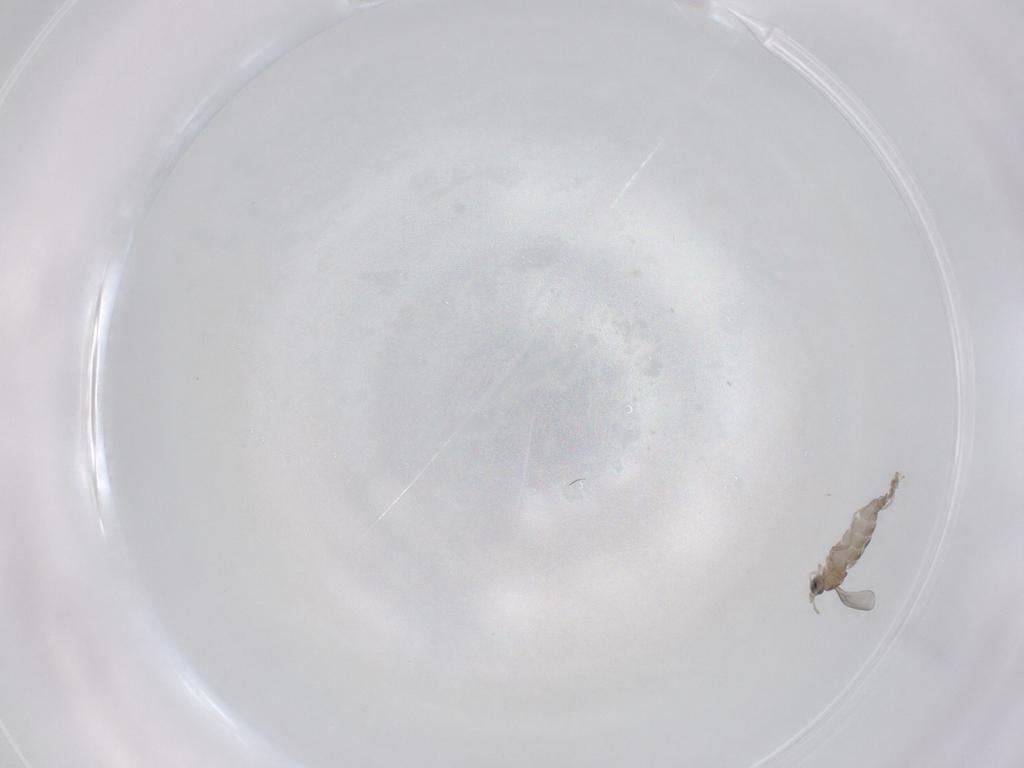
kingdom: Animalia
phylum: Arthropoda
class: Insecta
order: Diptera
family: Cecidomyiidae
